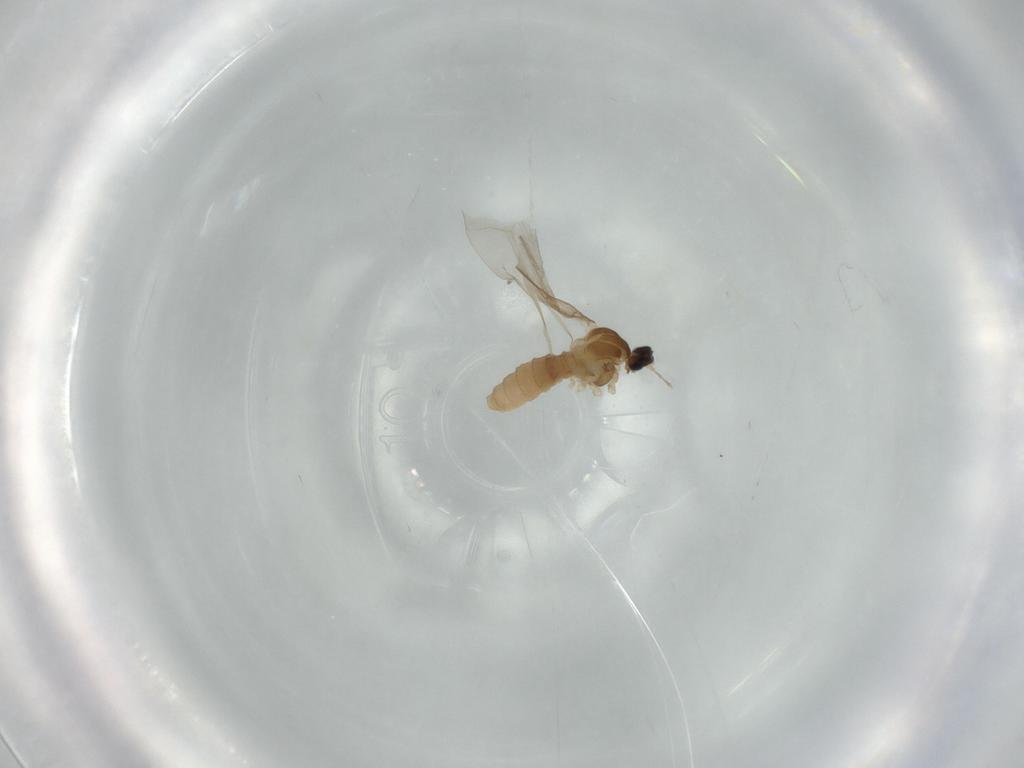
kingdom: Animalia
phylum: Arthropoda
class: Insecta
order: Diptera
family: Cecidomyiidae
